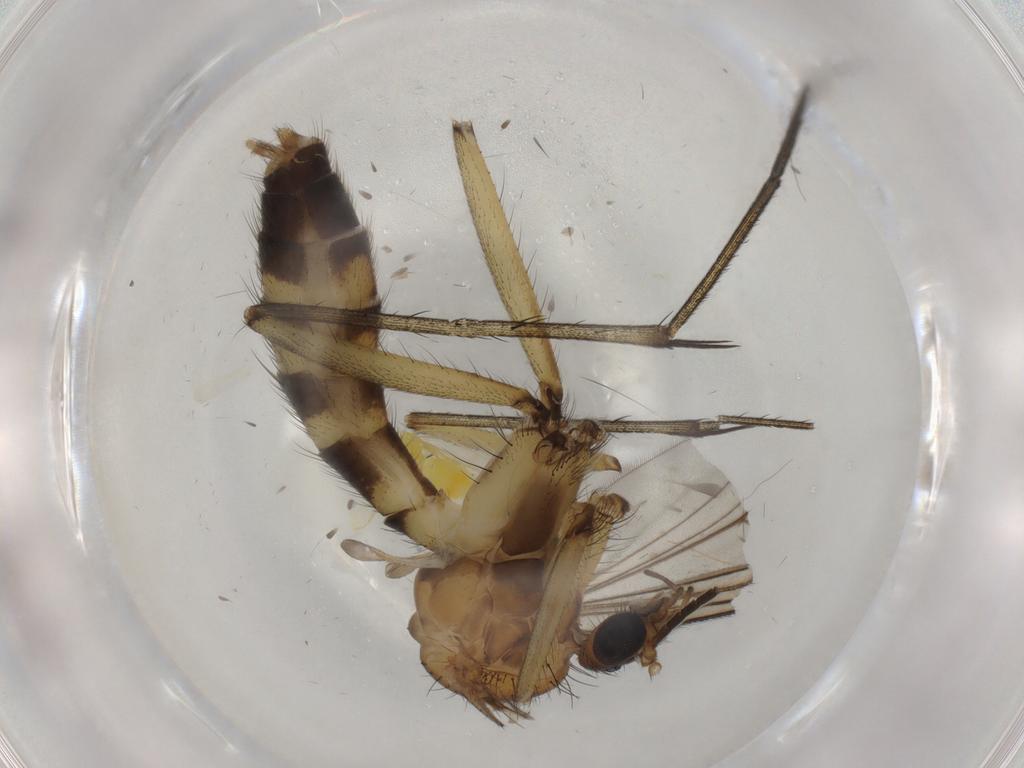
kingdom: Animalia
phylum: Arthropoda
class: Insecta
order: Diptera
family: Mycetophilidae
